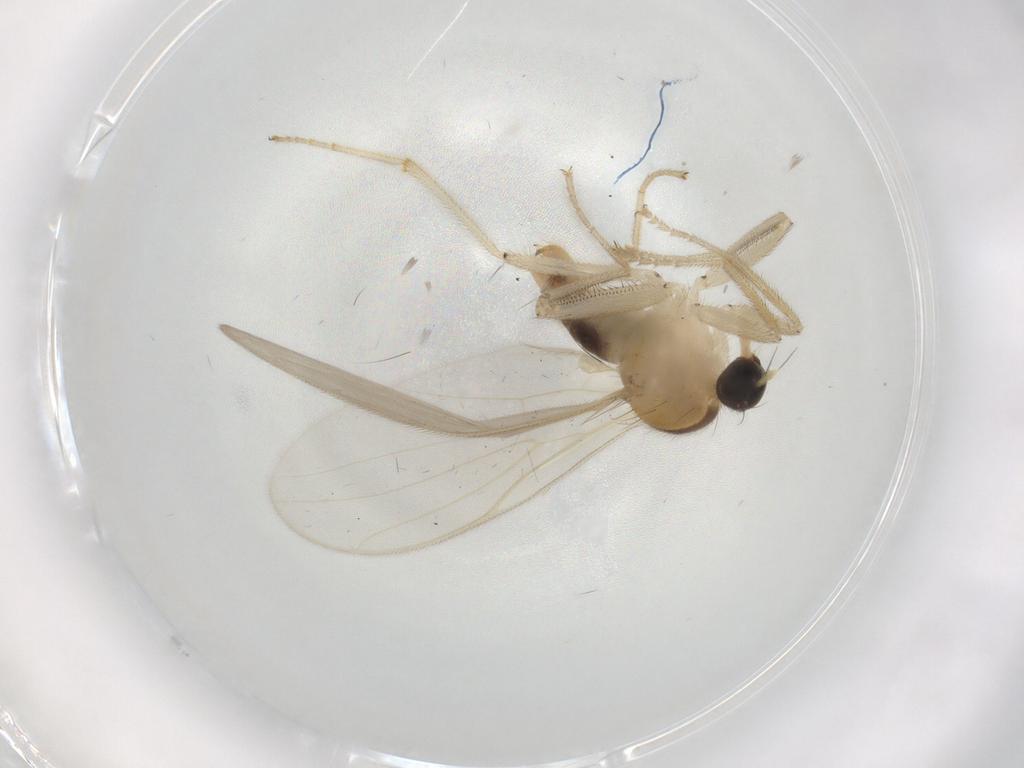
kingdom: Animalia
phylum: Arthropoda
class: Insecta
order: Diptera
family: Hybotidae
